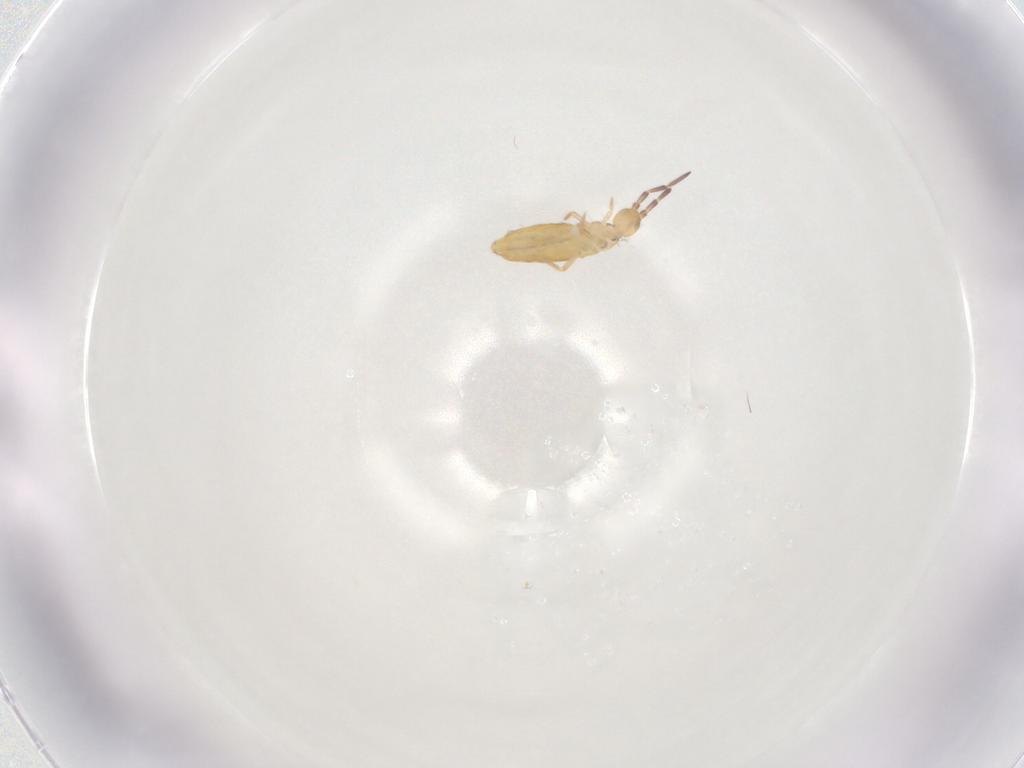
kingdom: Animalia
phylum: Arthropoda
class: Collembola
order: Entomobryomorpha
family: Entomobryidae
